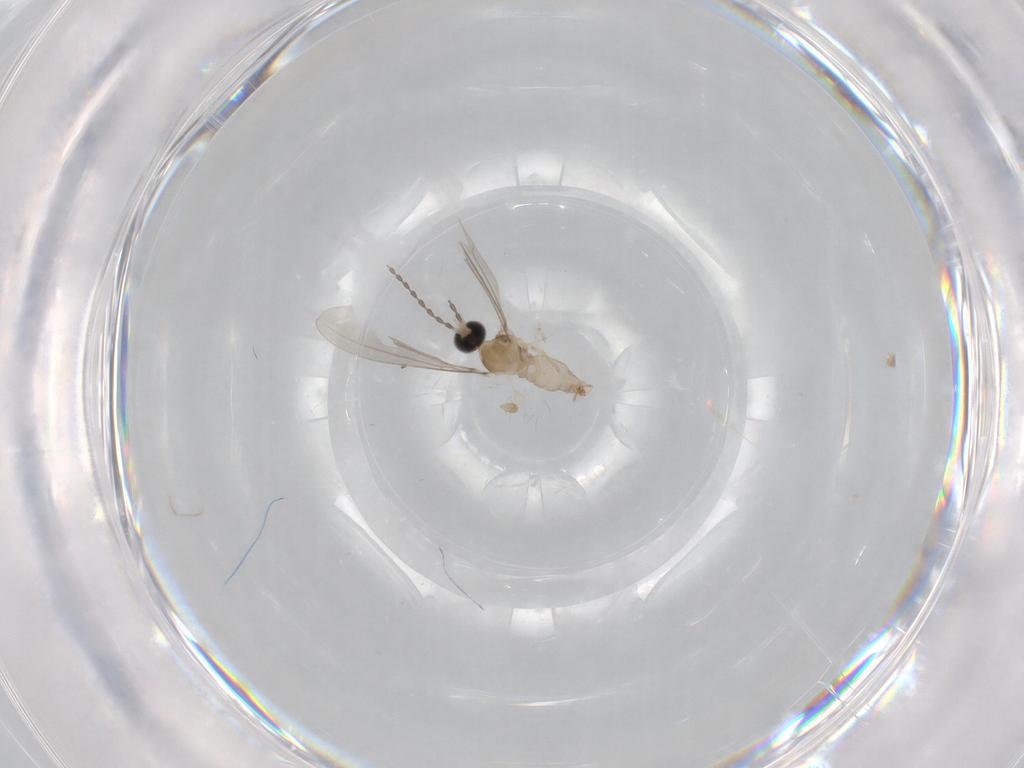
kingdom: Animalia
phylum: Arthropoda
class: Insecta
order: Diptera
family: Cecidomyiidae
